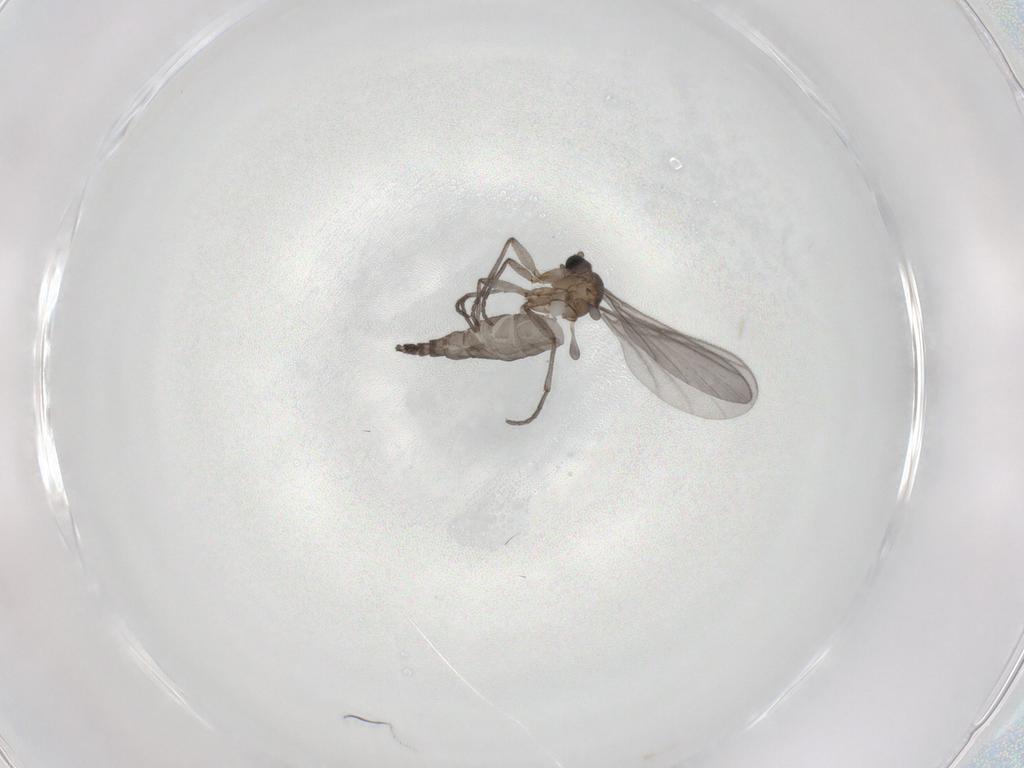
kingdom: Animalia
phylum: Arthropoda
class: Insecta
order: Diptera
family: Sciaridae
